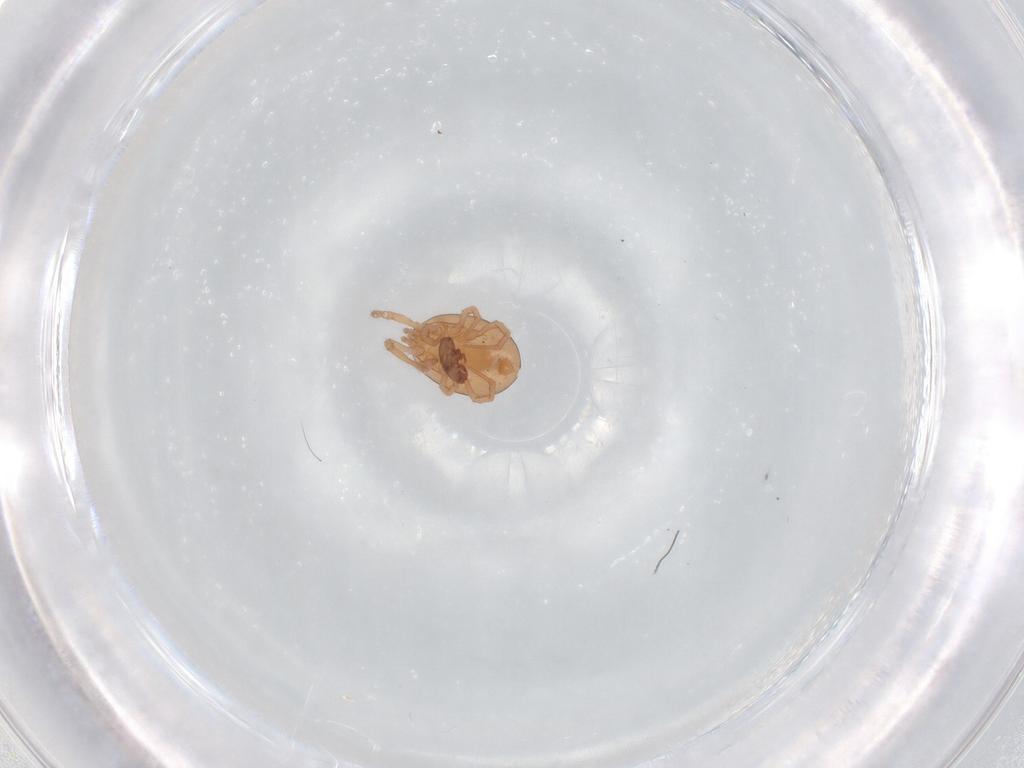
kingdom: Animalia
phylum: Arthropoda
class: Arachnida
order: Mesostigmata
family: Parasitidae
